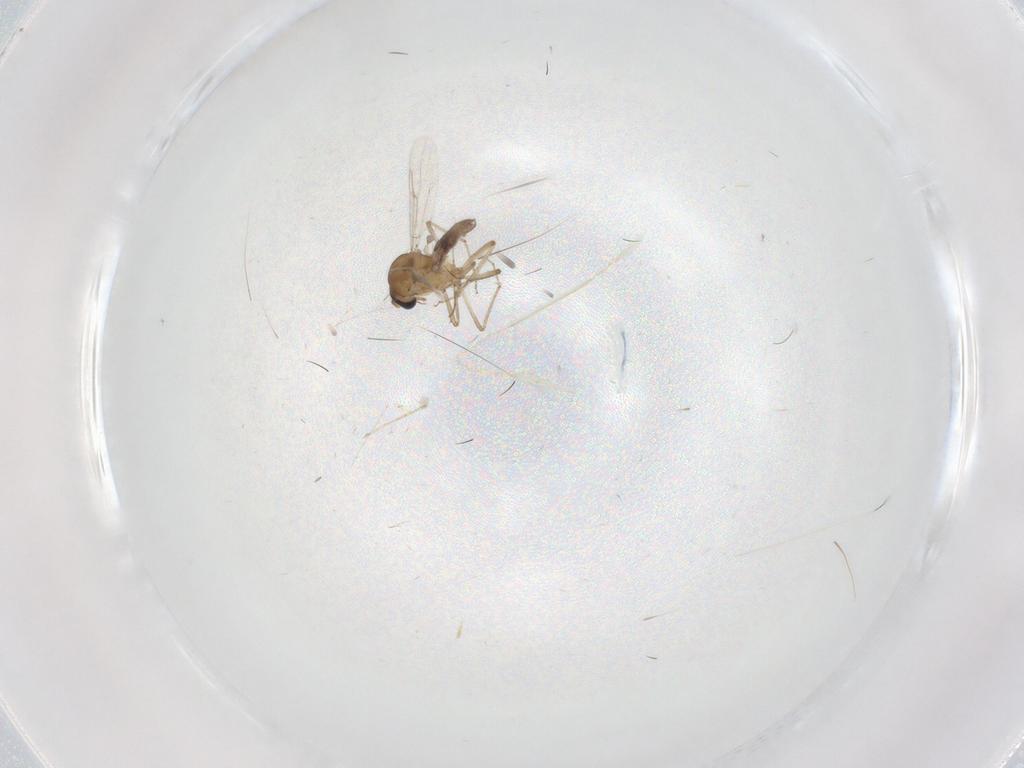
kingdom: Animalia
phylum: Arthropoda
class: Insecta
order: Diptera
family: Ceratopogonidae
